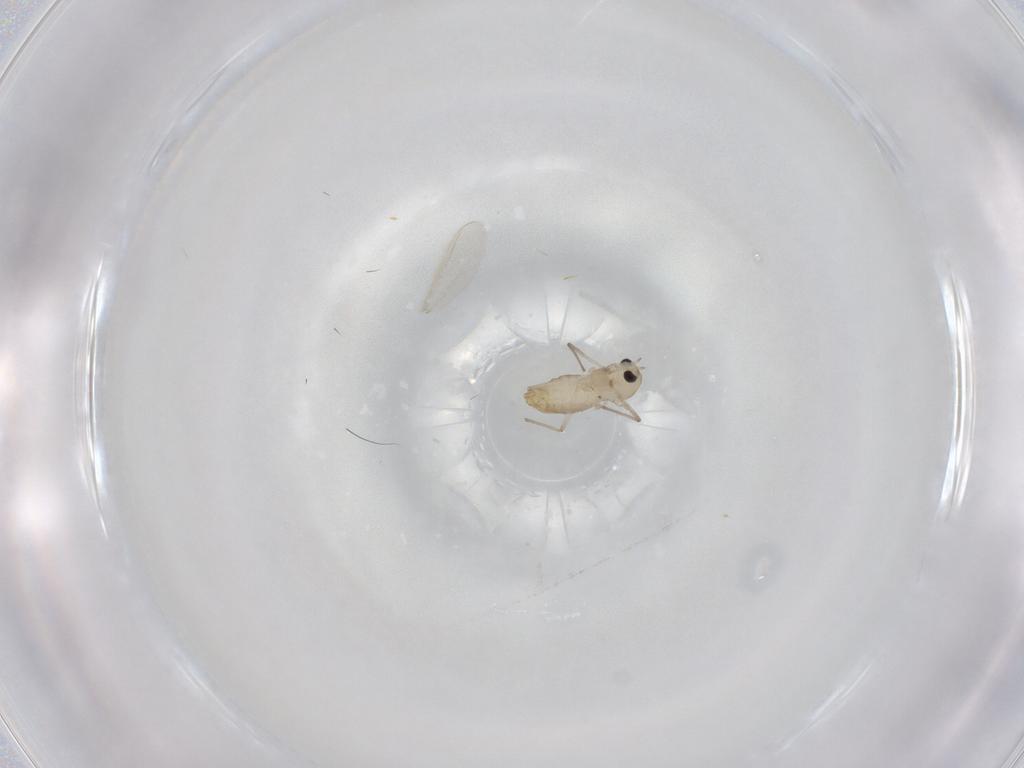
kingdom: Animalia
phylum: Arthropoda
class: Insecta
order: Diptera
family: Chironomidae
